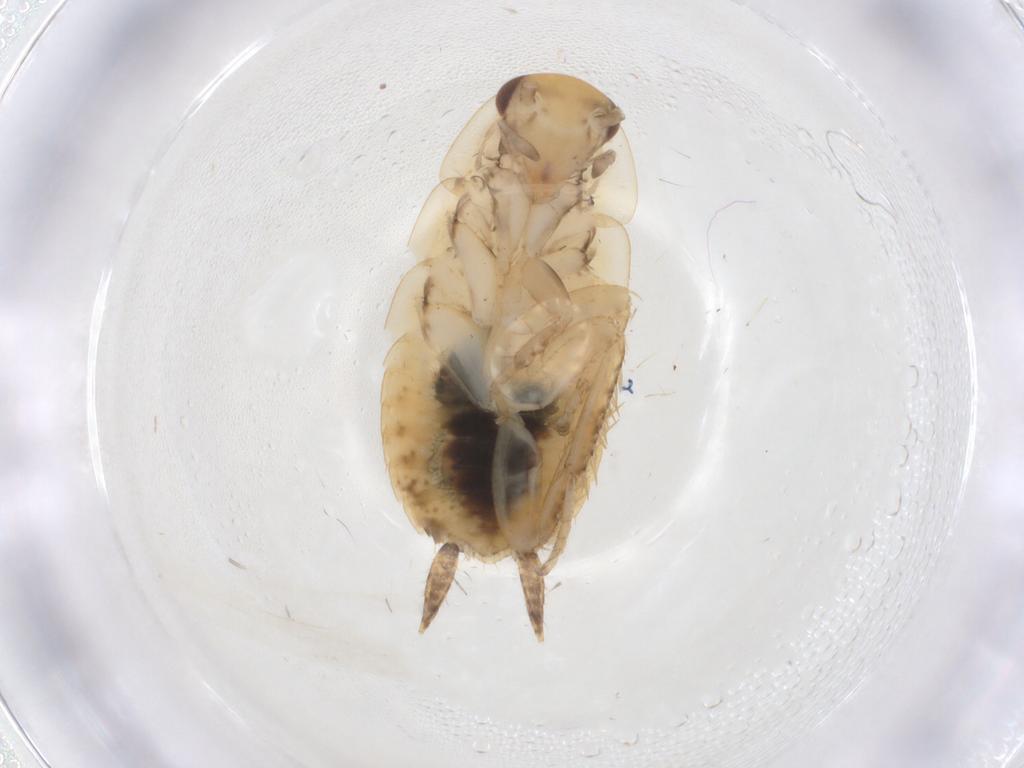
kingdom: Animalia
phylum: Arthropoda
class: Insecta
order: Blattodea
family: Ectobiidae
